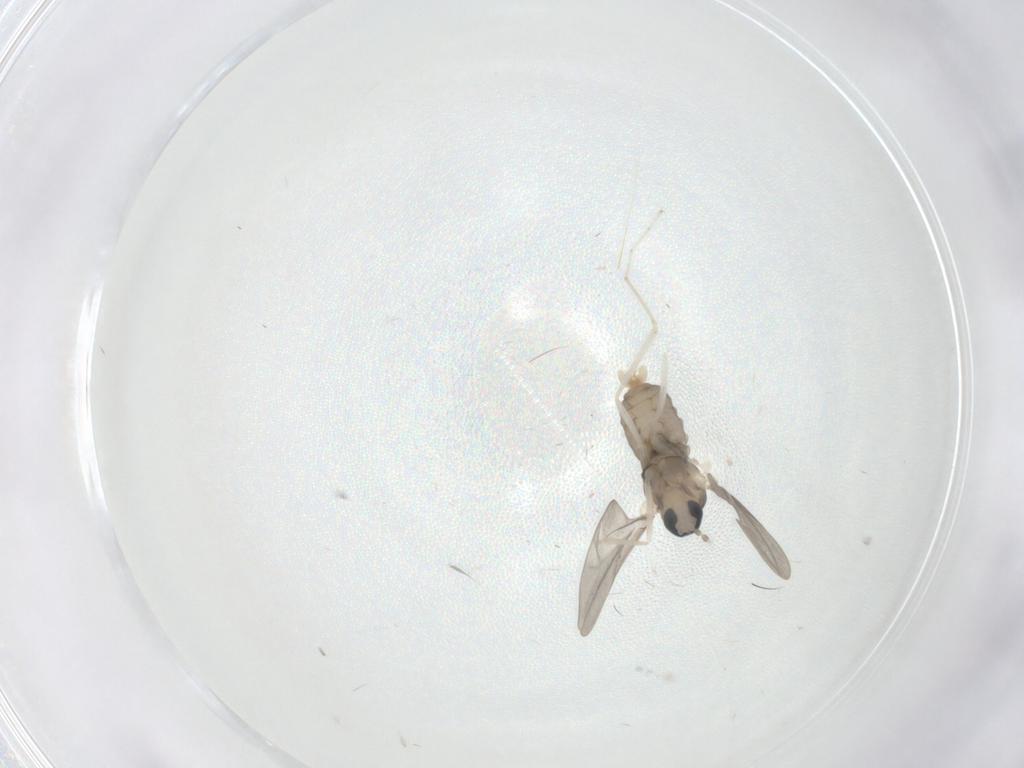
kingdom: Animalia
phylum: Arthropoda
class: Insecta
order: Diptera
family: Cecidomyiidae
